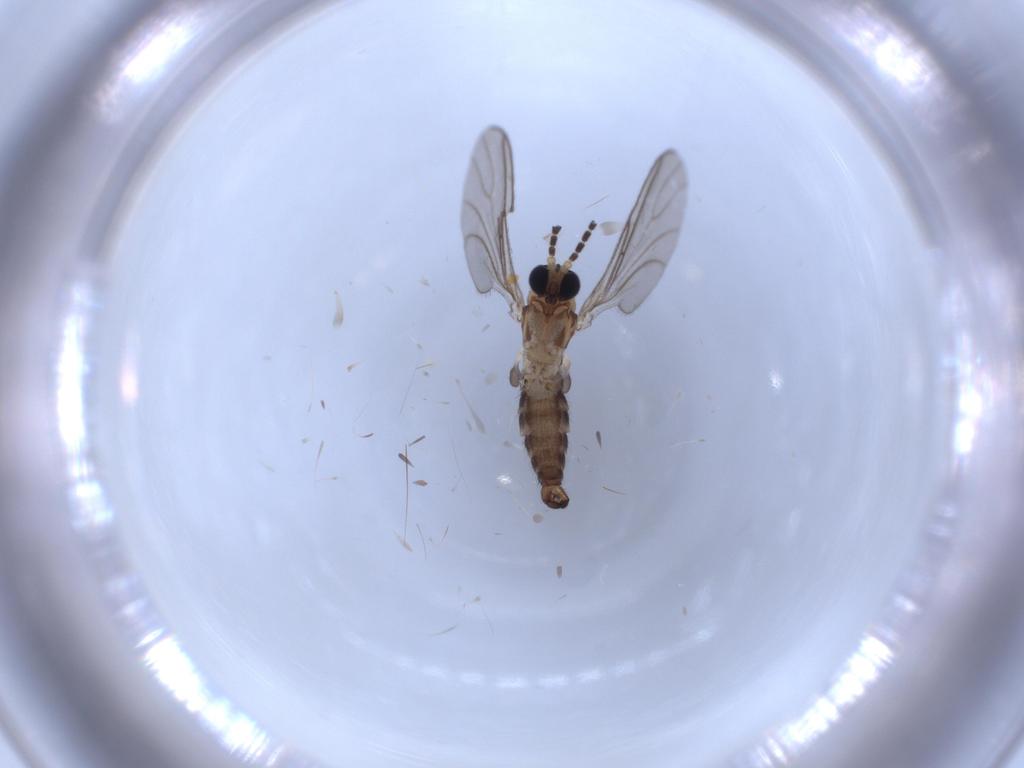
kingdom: Animalia
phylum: Arthropoda
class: Insecta
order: Diptera
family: Sciaridae
